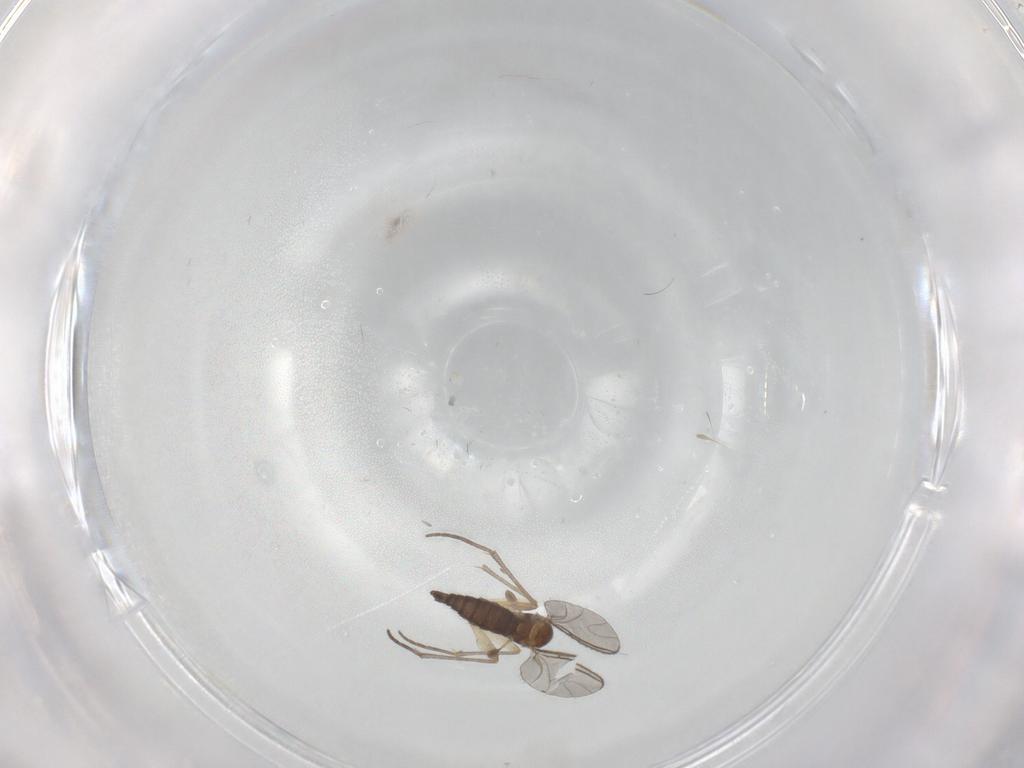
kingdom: Animalia
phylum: Arthropoda
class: Insecta
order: Diptera
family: Sciaridae
